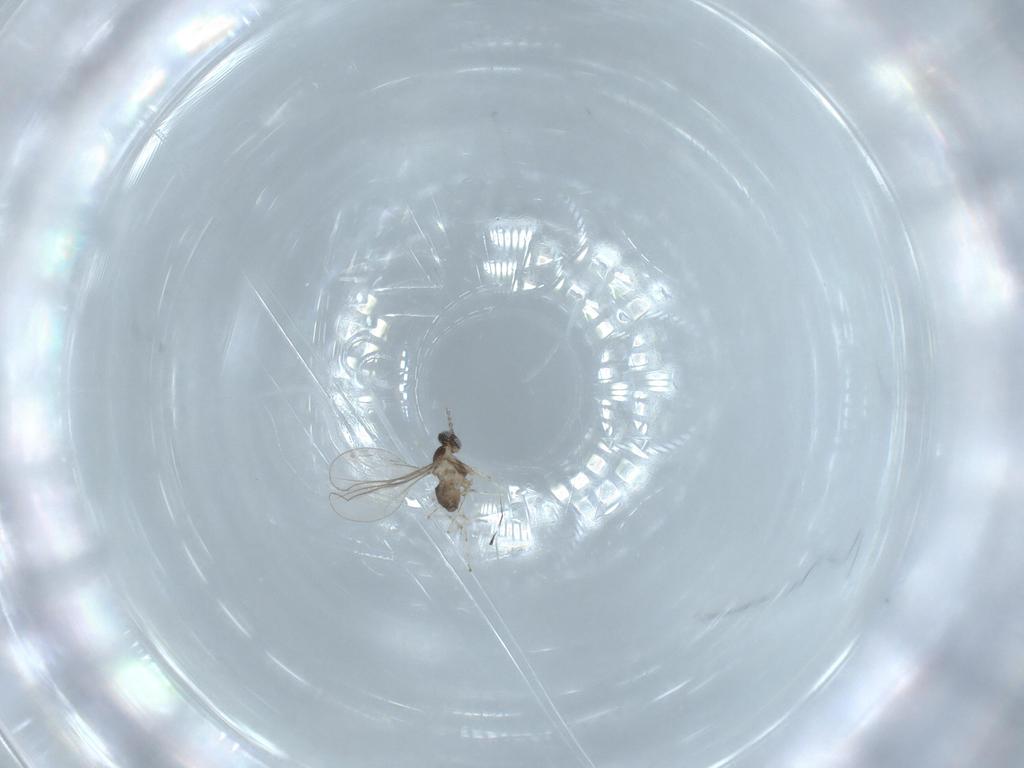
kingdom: Animalia
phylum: Arthropoda
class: Insecta
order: Diptera
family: Cecidomyiidae
